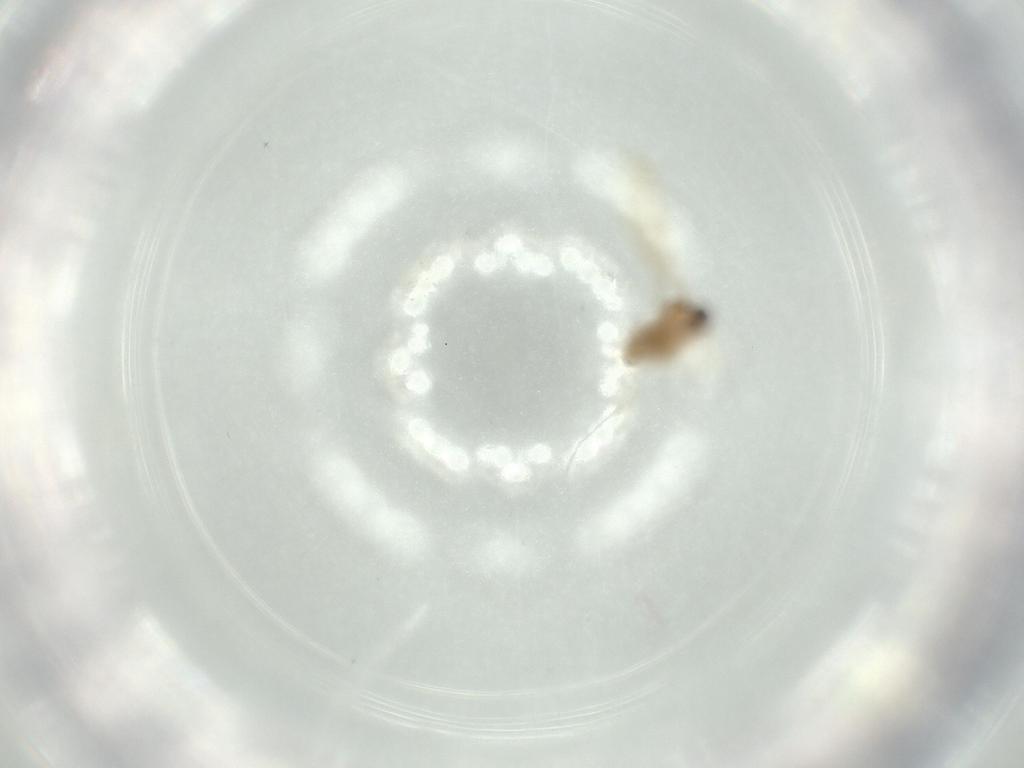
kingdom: Animalia
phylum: Arthropoda
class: Insecta
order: Diptera
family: Cecidomyiidae
